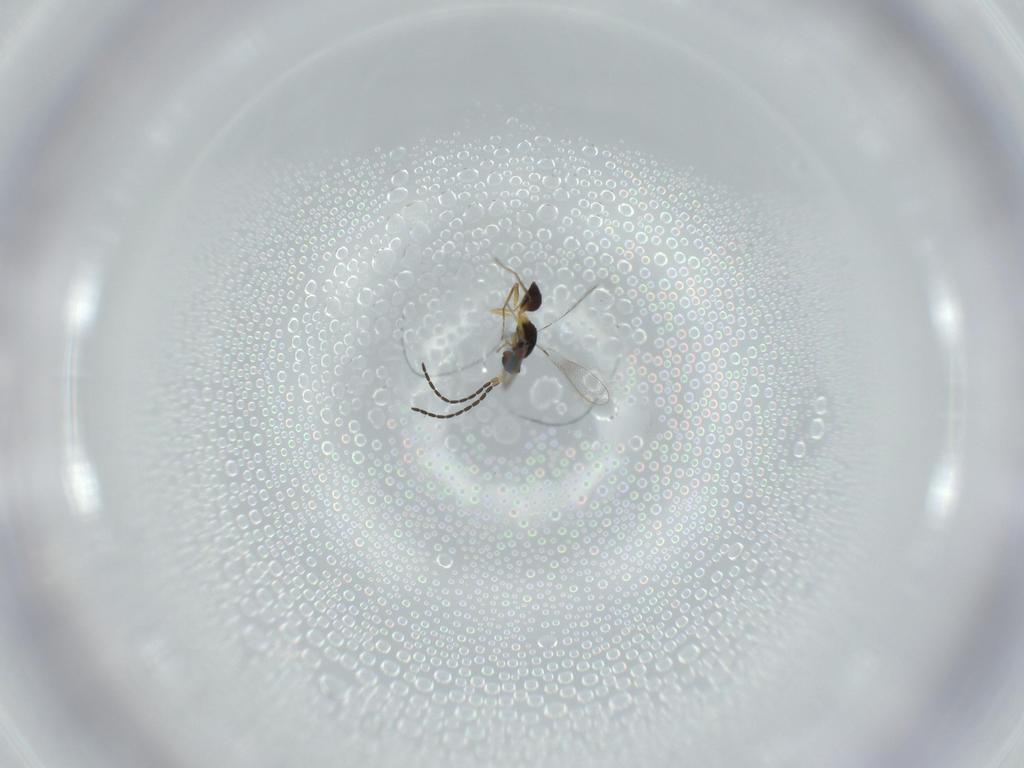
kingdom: Animalia
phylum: Arthropoda
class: Insecta
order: Hymenoptera
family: Mymaridae
